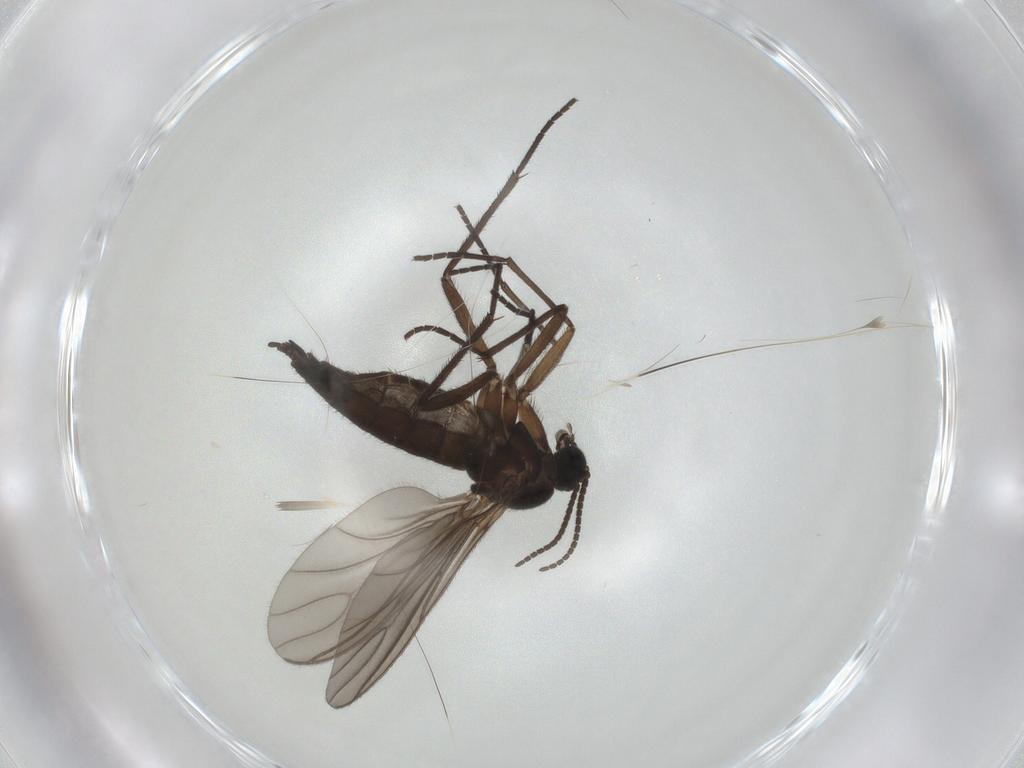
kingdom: Animalia
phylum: Arthropoda
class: Insecta
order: Diptera
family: Sciaridae
